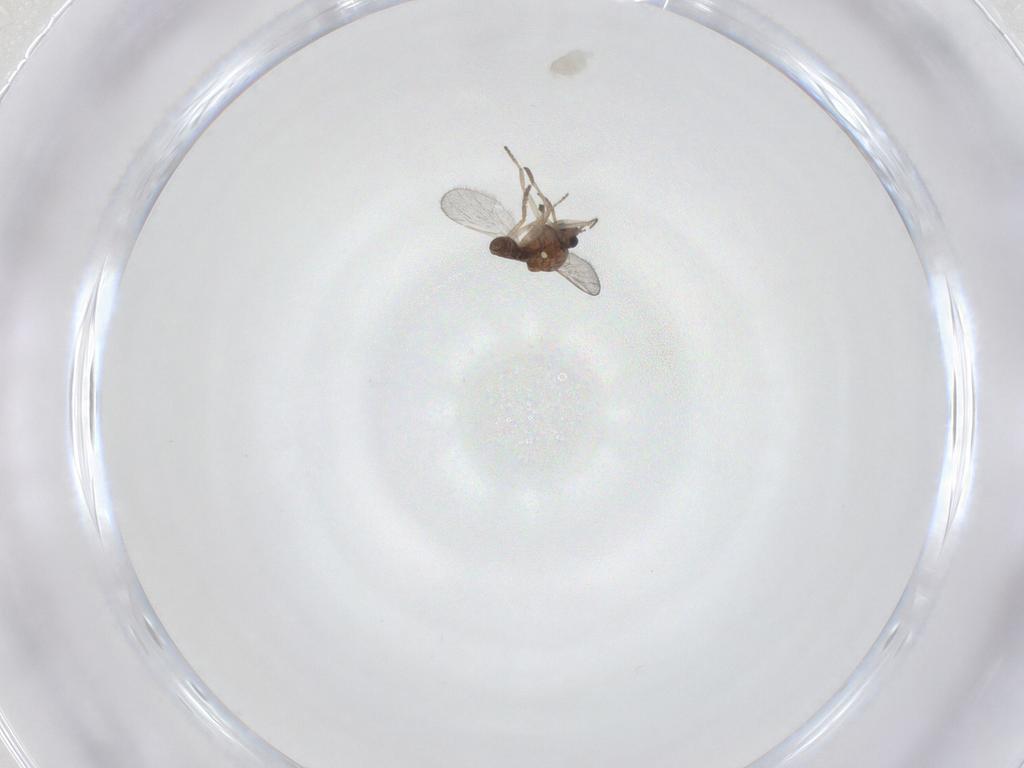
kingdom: Animalia
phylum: Arthropoda
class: Insecta
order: Diptera
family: Ceratopogonidae
